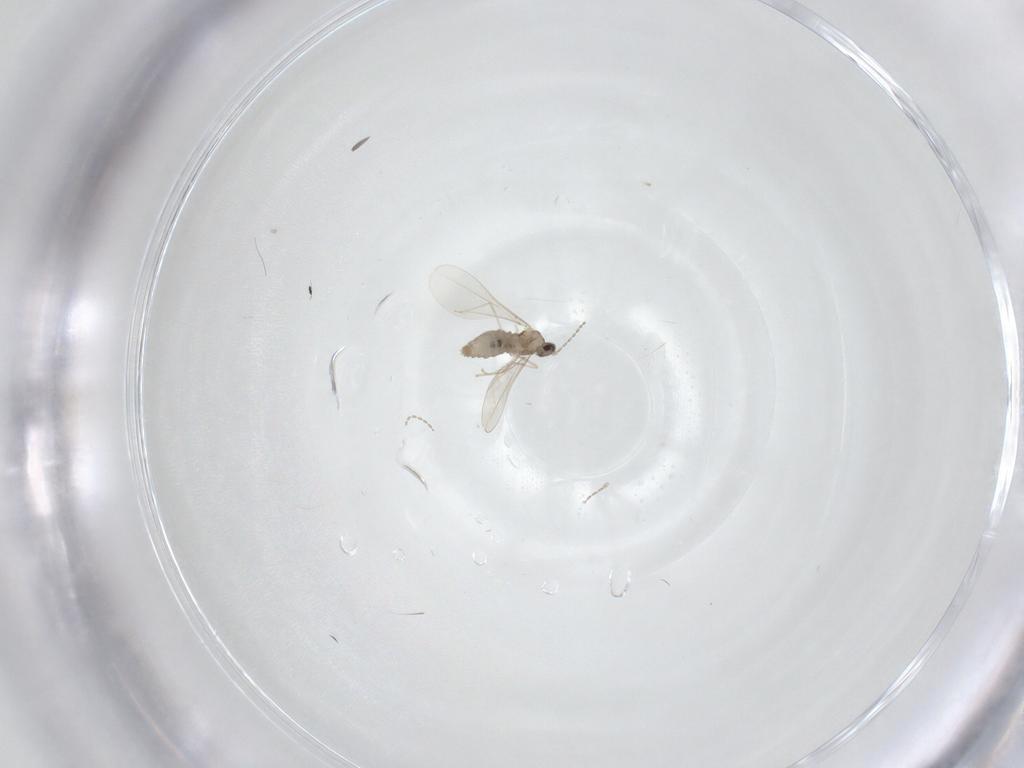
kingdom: Animalia
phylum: Arthropoda
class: Insecta
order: Diptera
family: Cecidomyiidae
